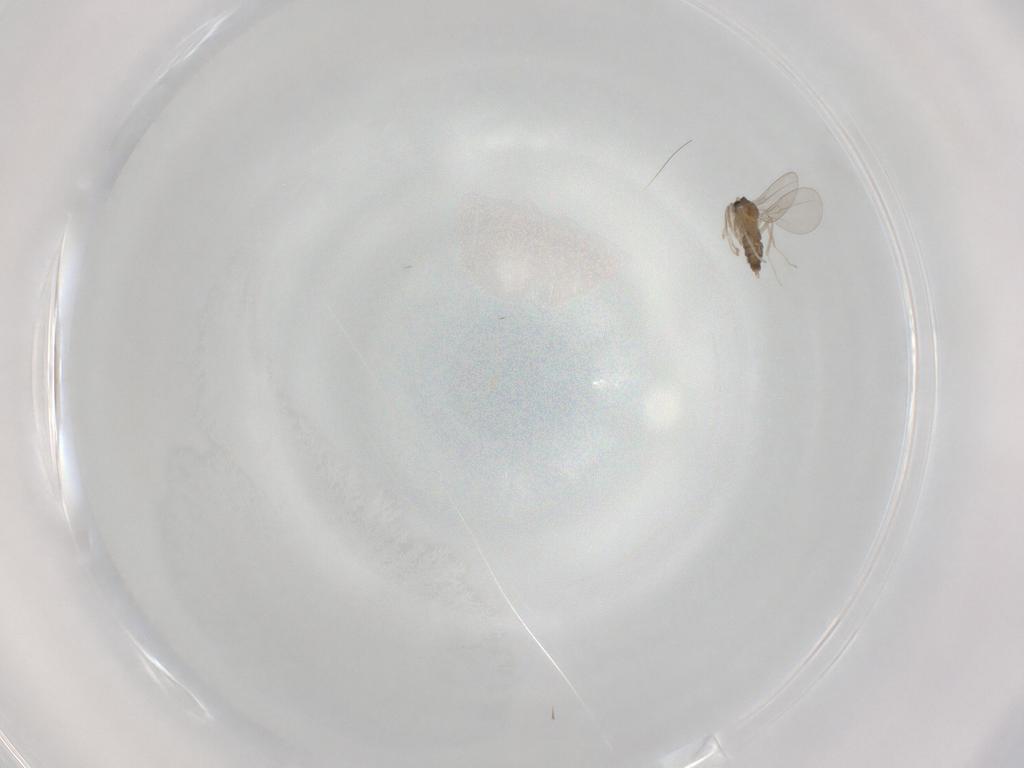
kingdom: Animalia
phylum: Arthropoda
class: Insecta
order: Diptera
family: Cecidomyiidae
